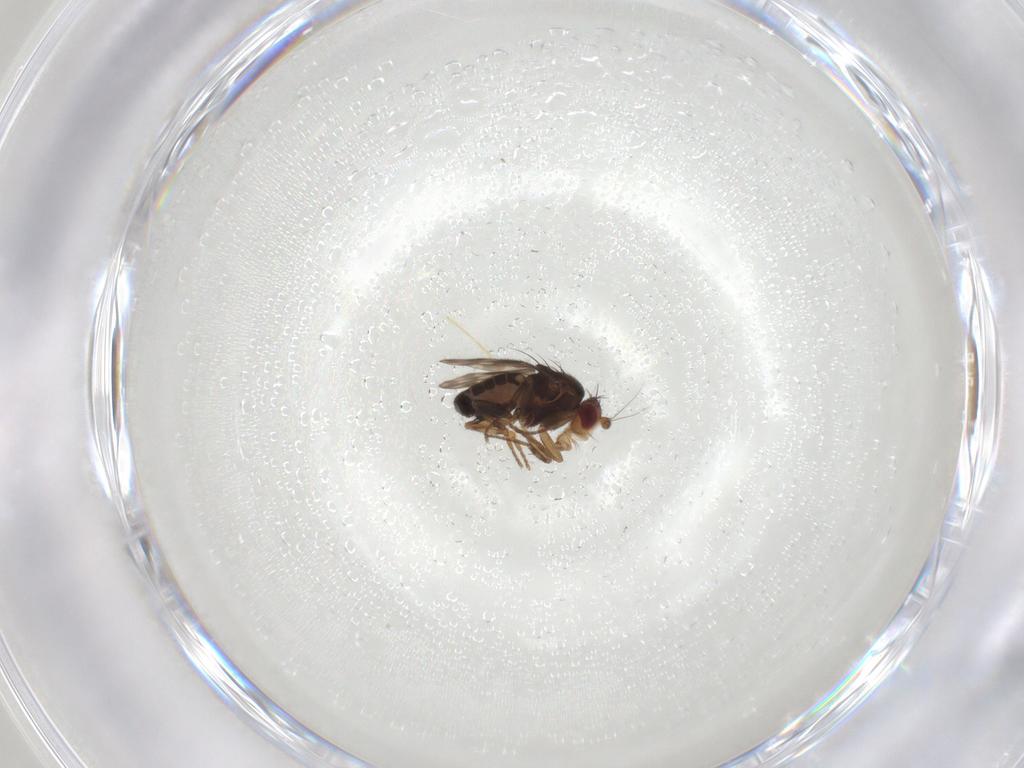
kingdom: Animalia
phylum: Arthropoda
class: Insecta
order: Diptera
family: Sphaeroceridae
